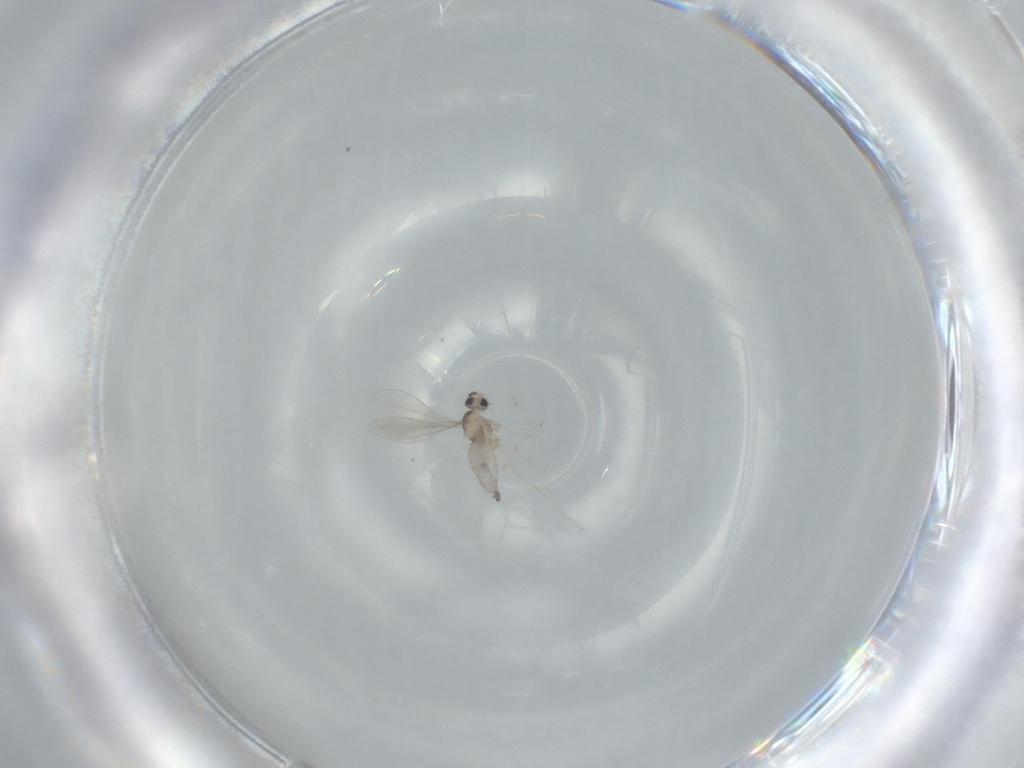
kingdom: Animalia
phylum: Arthropoda
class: Insecta
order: Diptera
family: Cecidomyiidae
